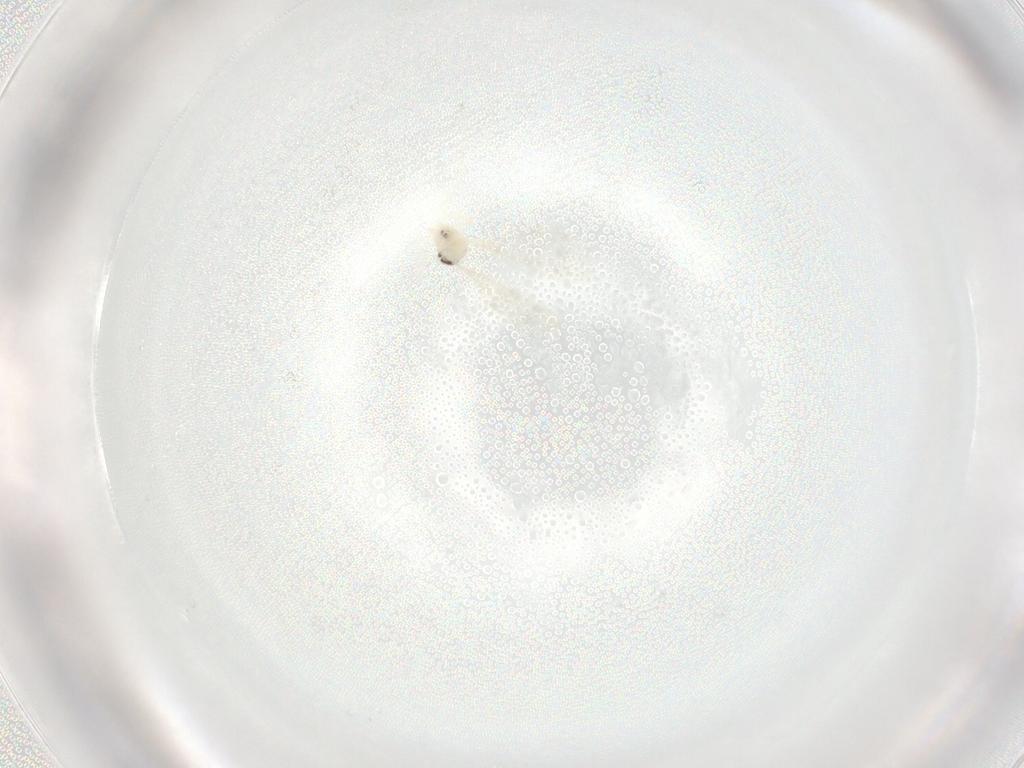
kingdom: Animalia
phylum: Arthropoda
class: Insecta
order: Diptera
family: Cecidomyiidae
